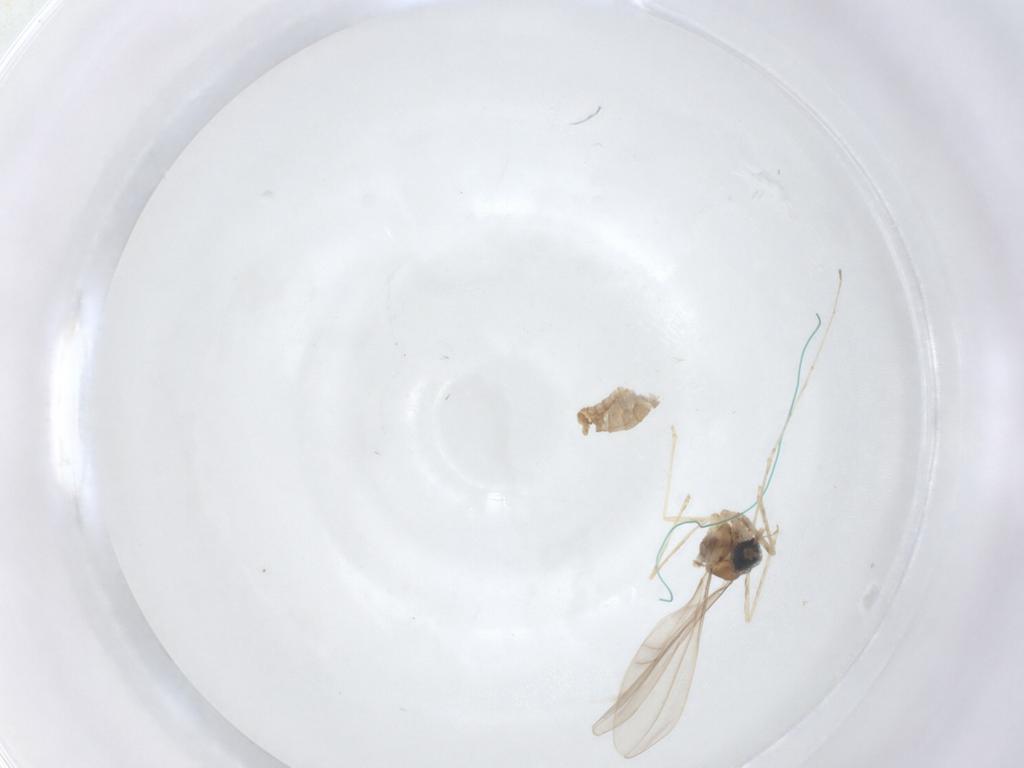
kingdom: Animalia
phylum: Arthropoda
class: Insecta
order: Diptera
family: Cecidomyiidae
